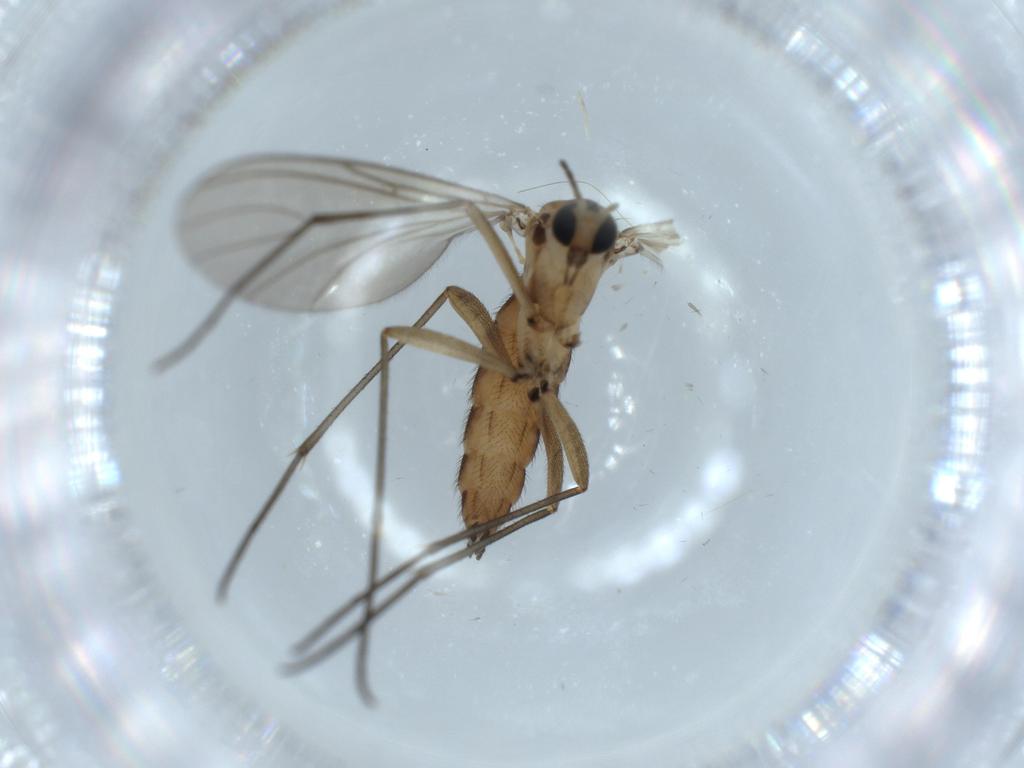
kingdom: Animalia
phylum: Arthropoda
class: Insecta
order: Diptera
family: Sciaridae
